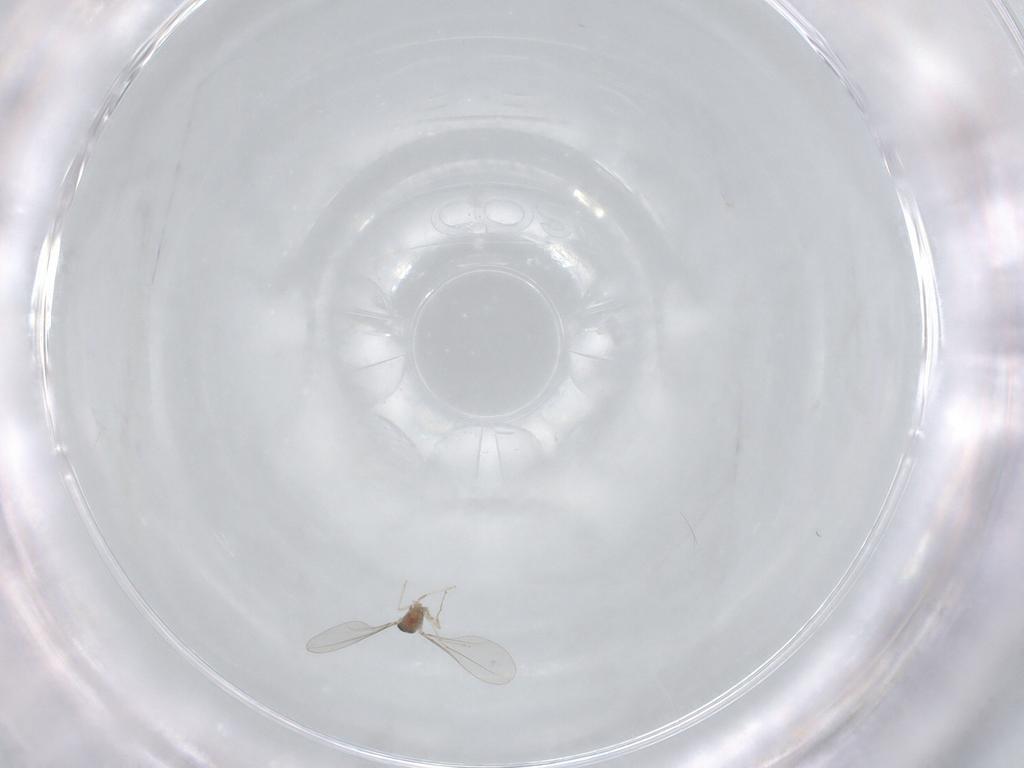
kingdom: Animalia
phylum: Arthropoda
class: Insecta
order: Diptera
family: Cecidomyiidae
